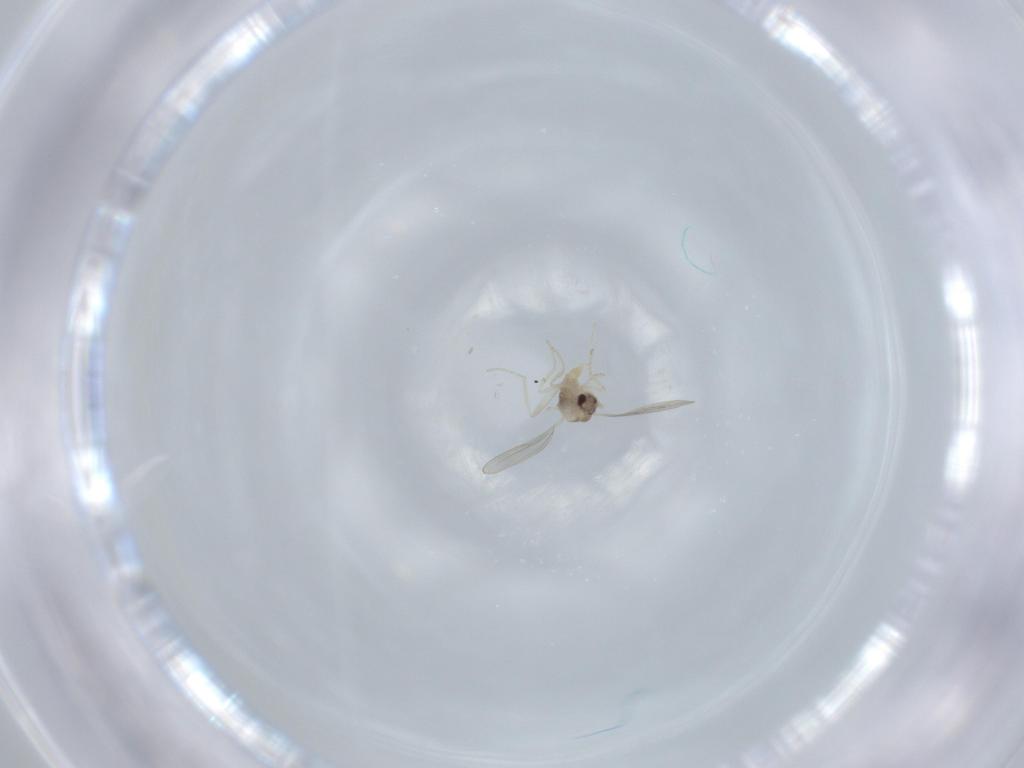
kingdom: Animalia
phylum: Arthropoda
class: Insecta
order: Diptera
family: Cecidomyiidae
